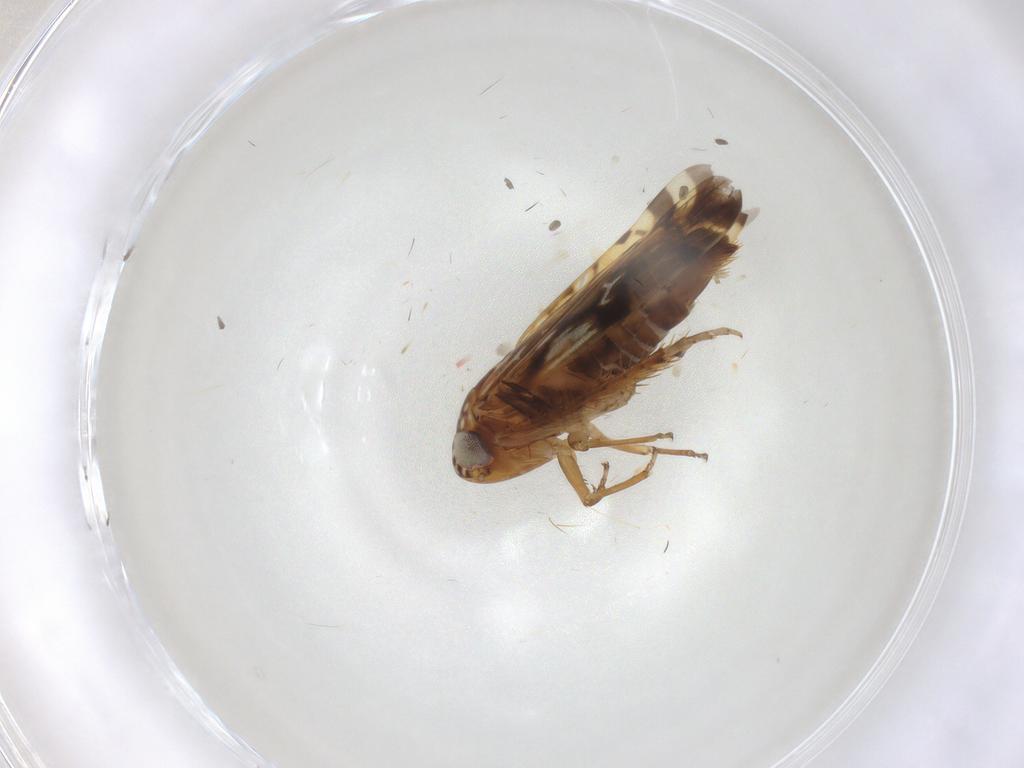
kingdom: Animalia
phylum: Arthropoda
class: Insecta
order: Hemiptera
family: Cicadellidae
